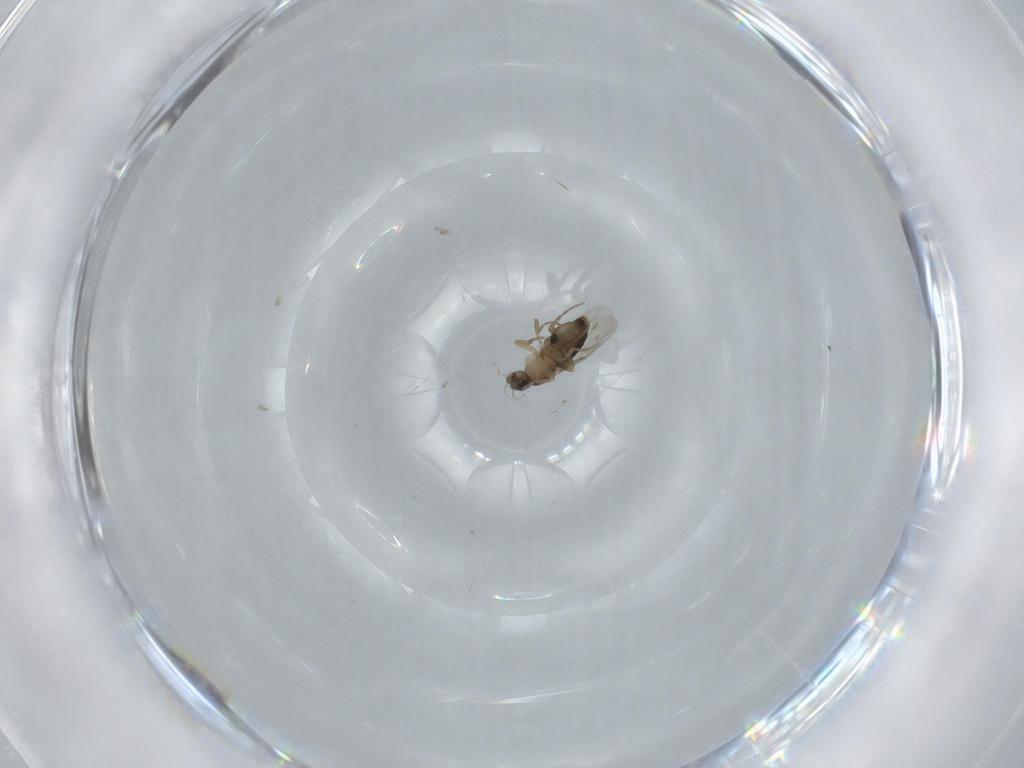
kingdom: Animalia
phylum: Arthropoda
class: Insecta
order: Diptera
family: Phoridae
